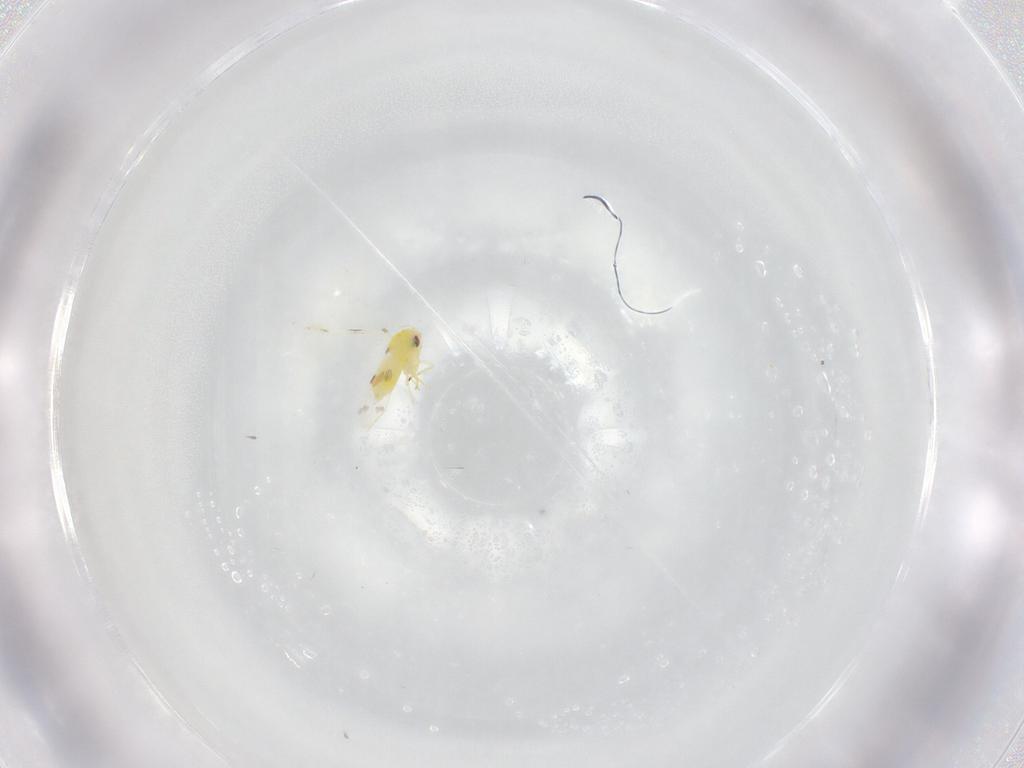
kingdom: Animalia
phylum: Arthropoda
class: Insecta
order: Hemiptera
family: Aleyrodidae
